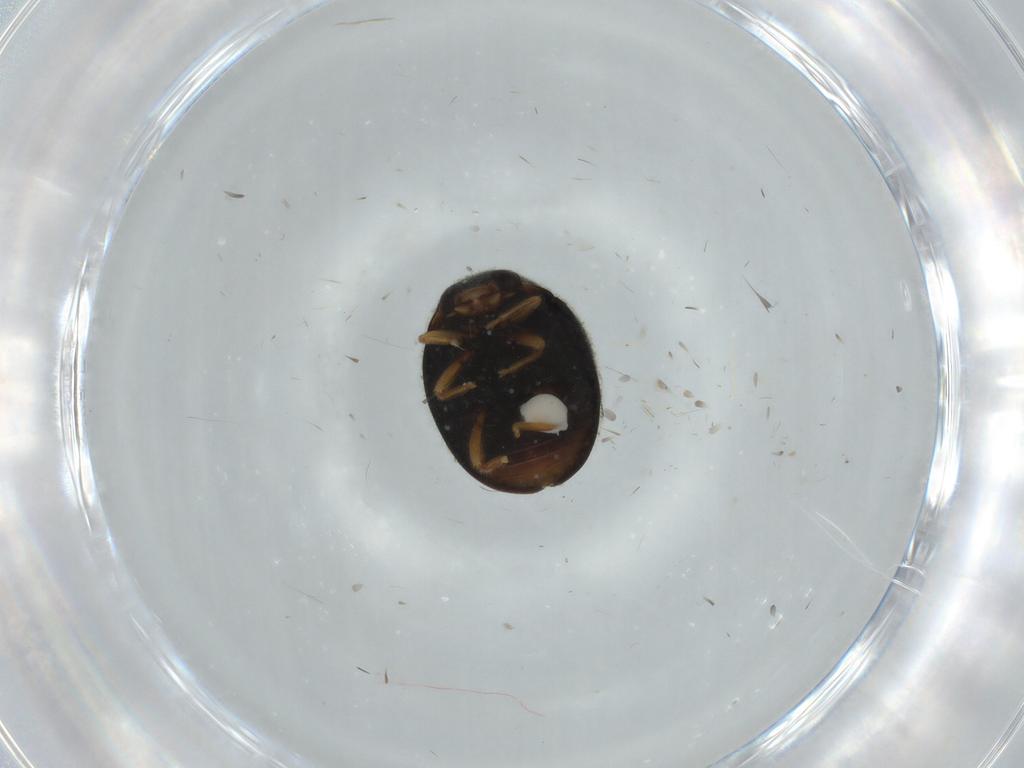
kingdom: Animalia
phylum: Arthropoda
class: Insecta
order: Coleoptera
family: Coccinellidae
